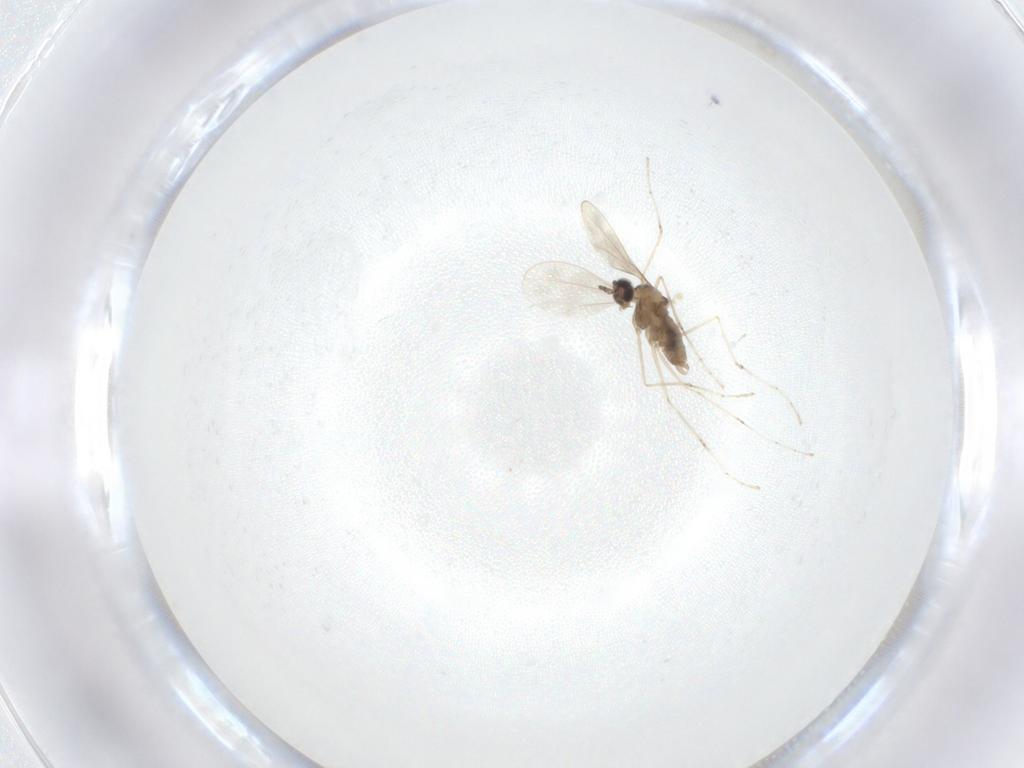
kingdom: Animalia
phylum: Arthropoda
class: Insecta
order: Diptera
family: Cecidomyiidae
